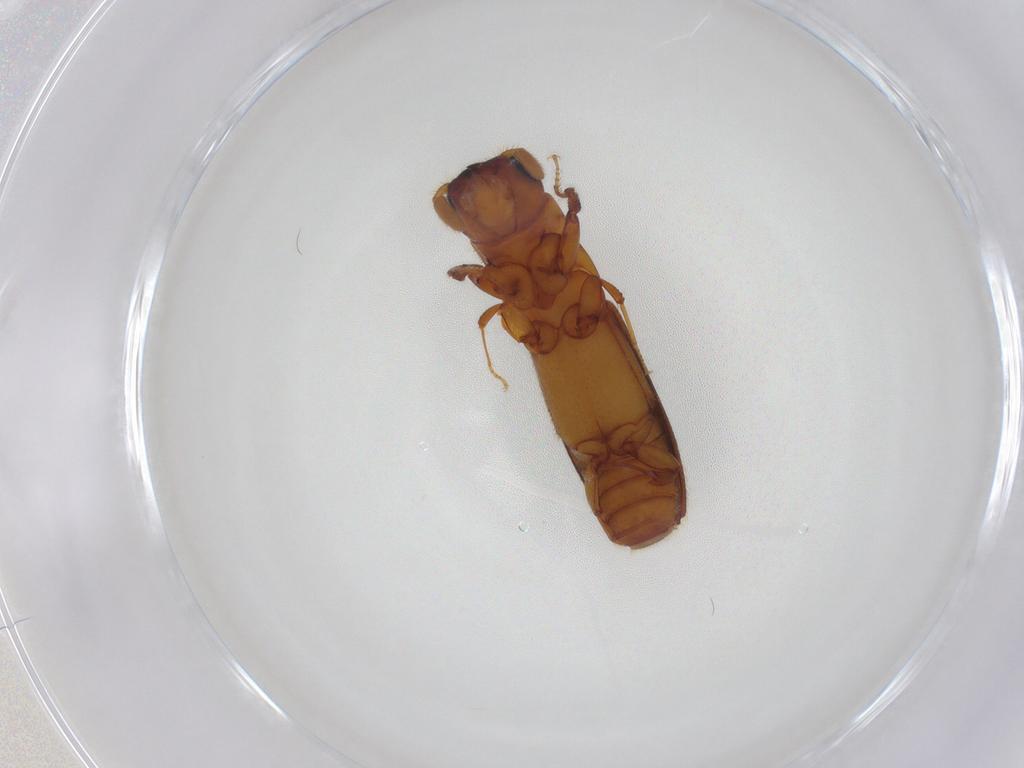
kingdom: Animalia
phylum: Arthropoda
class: Insecta
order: Coleoptera
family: Curculionidae
